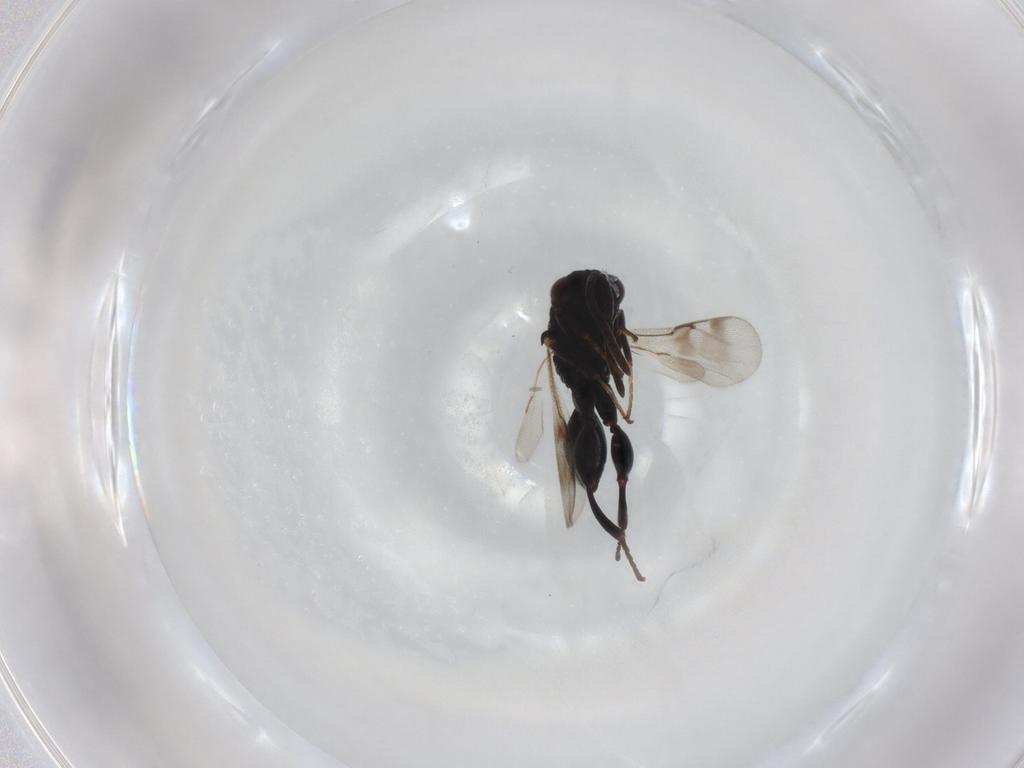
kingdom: Animalia
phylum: Arthropoda
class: Insecta
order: Hymenoptera
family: Chalcididae
